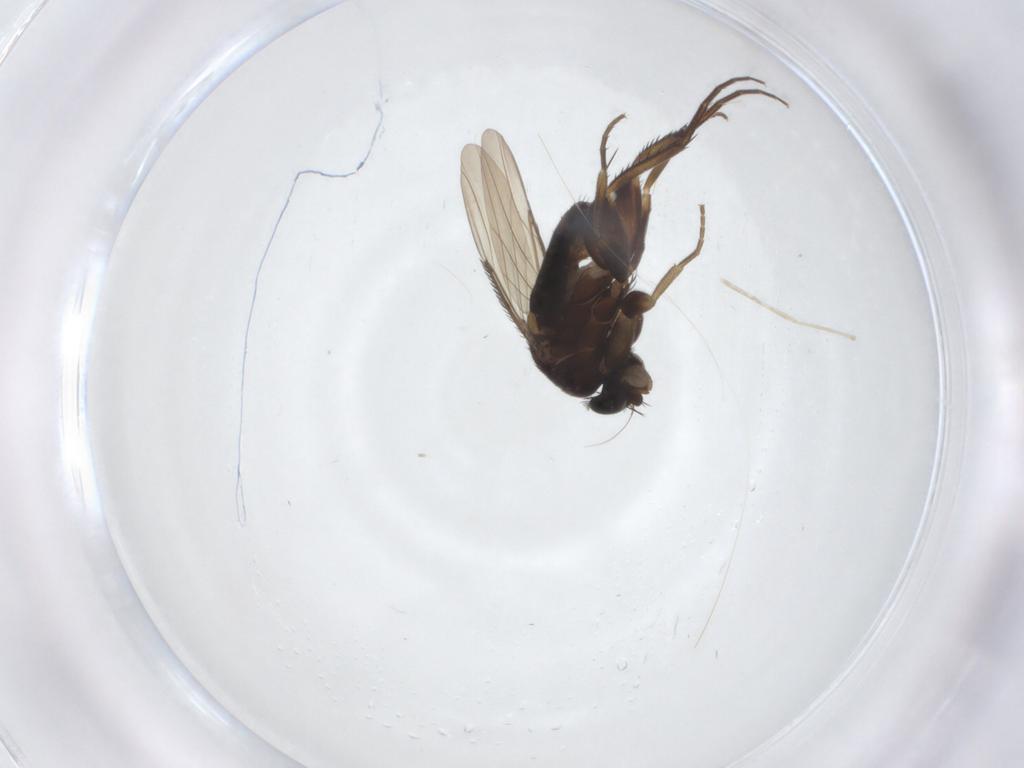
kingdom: Animalia
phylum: Arthropoda
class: Insecta
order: Diptera
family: Phoridae
